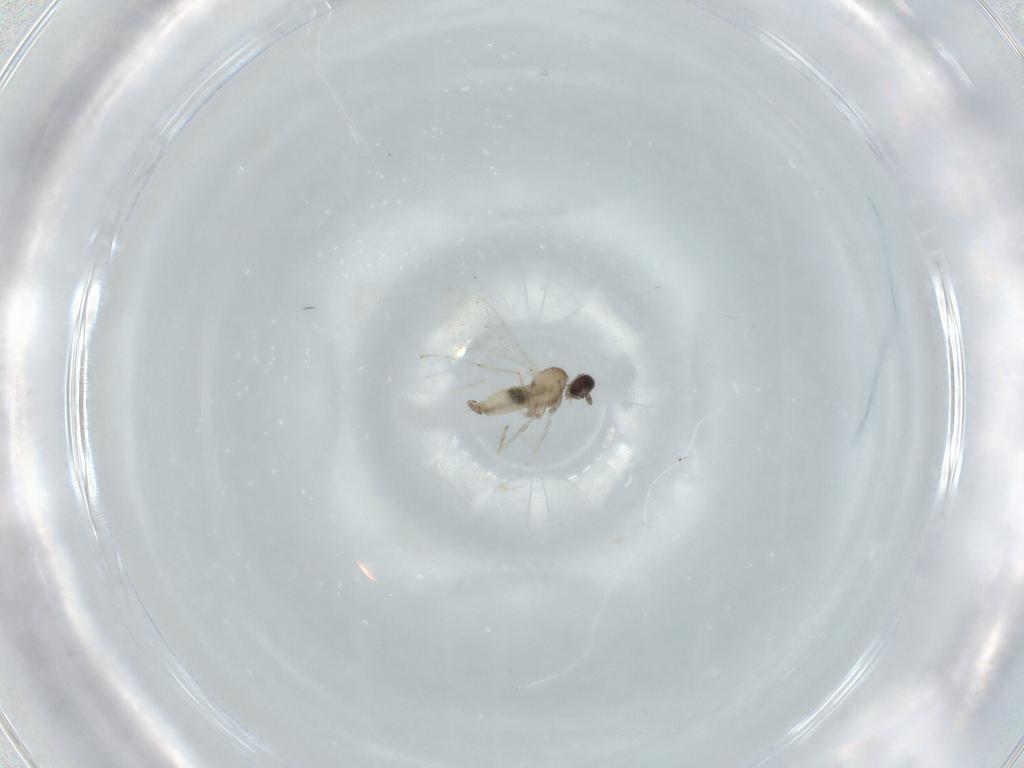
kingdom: Animalia
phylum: Arthropoda
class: Insecta
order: Diptera
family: Cecidomyiidae
